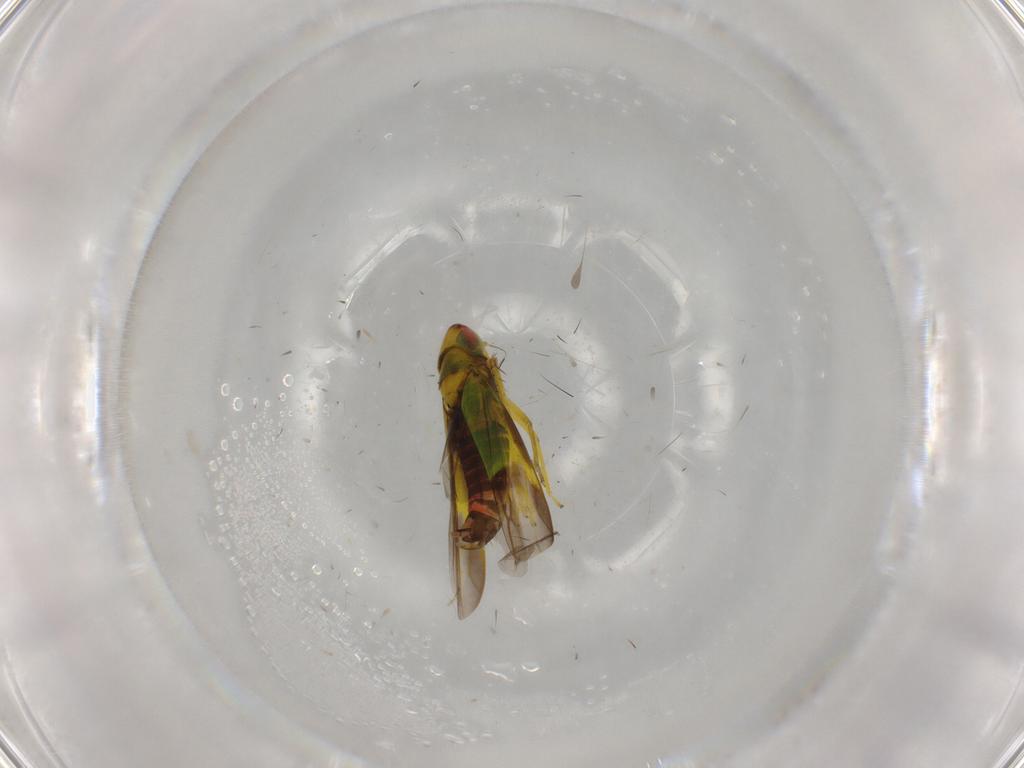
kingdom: Animalia
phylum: Arthropoda
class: Insecta
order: Hemiptera
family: Cicadellidae
